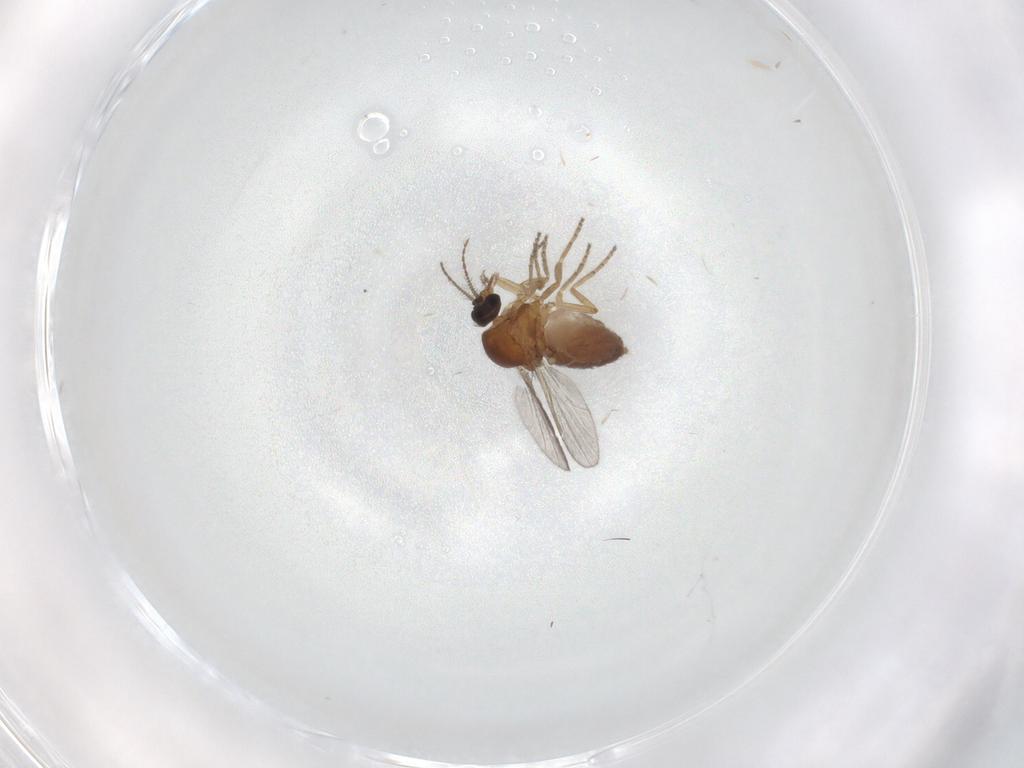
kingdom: Animalia
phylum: Arthropoda
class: Insecta
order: Diptera
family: Ceratopogonidae
